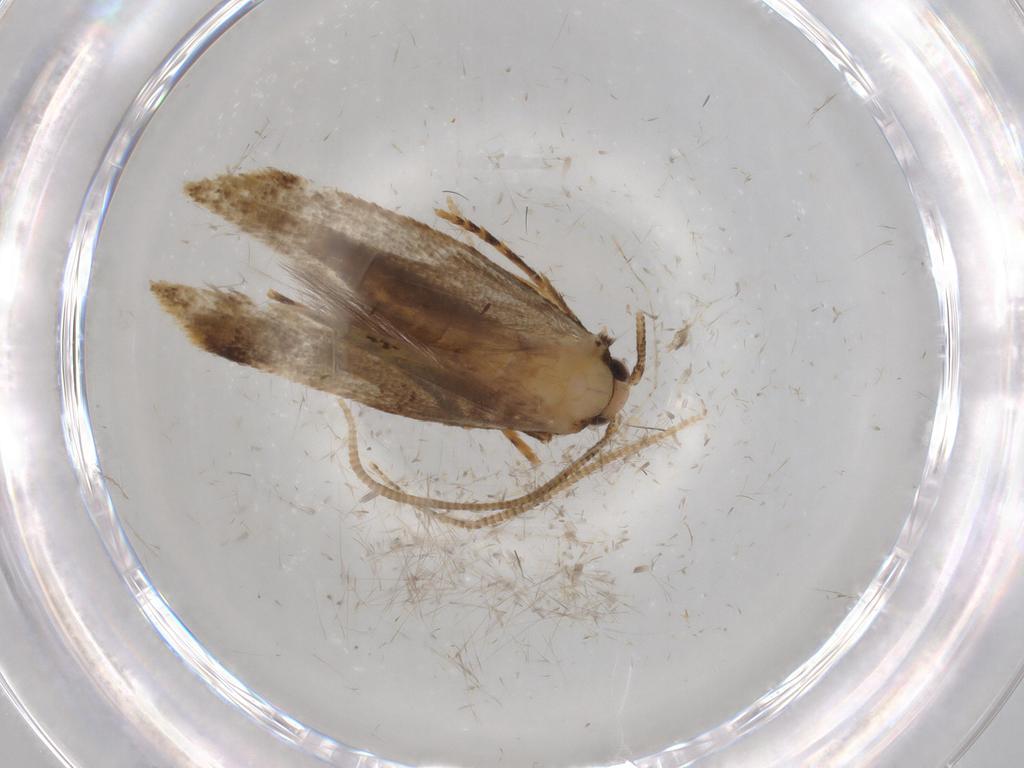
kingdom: Animalia
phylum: Arthropoda
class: Insecta
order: Lepidoptera
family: Tineidae
